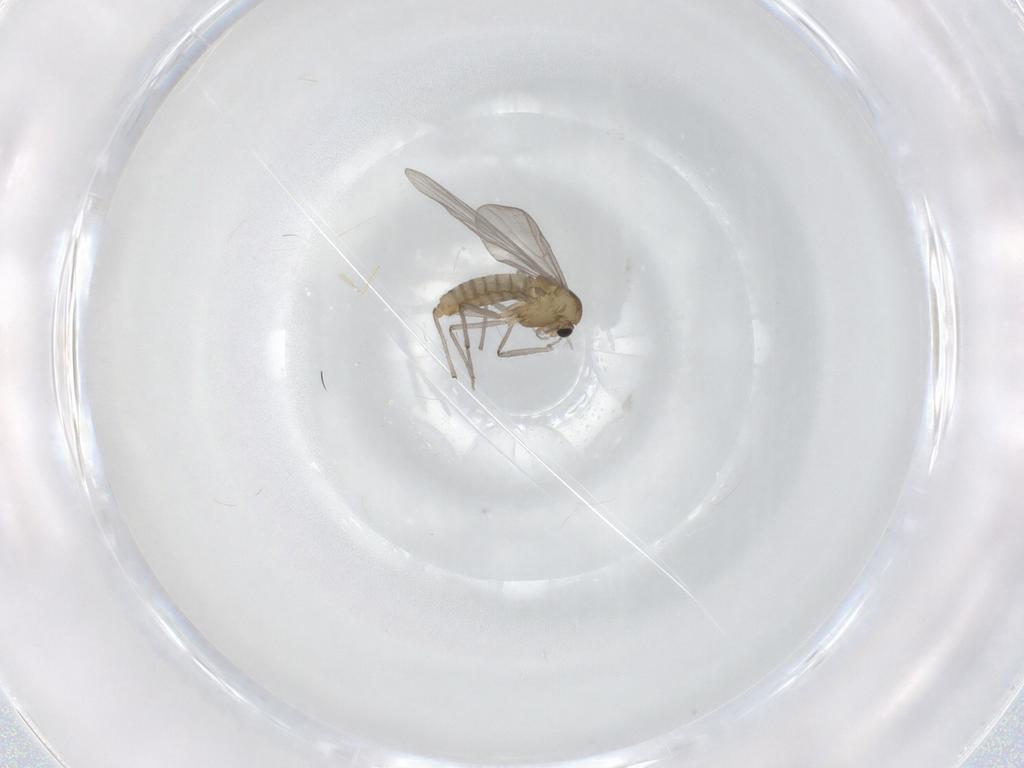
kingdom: Animalia
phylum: Arthropoda
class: Insecta
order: Diptera
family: Chironomidae
